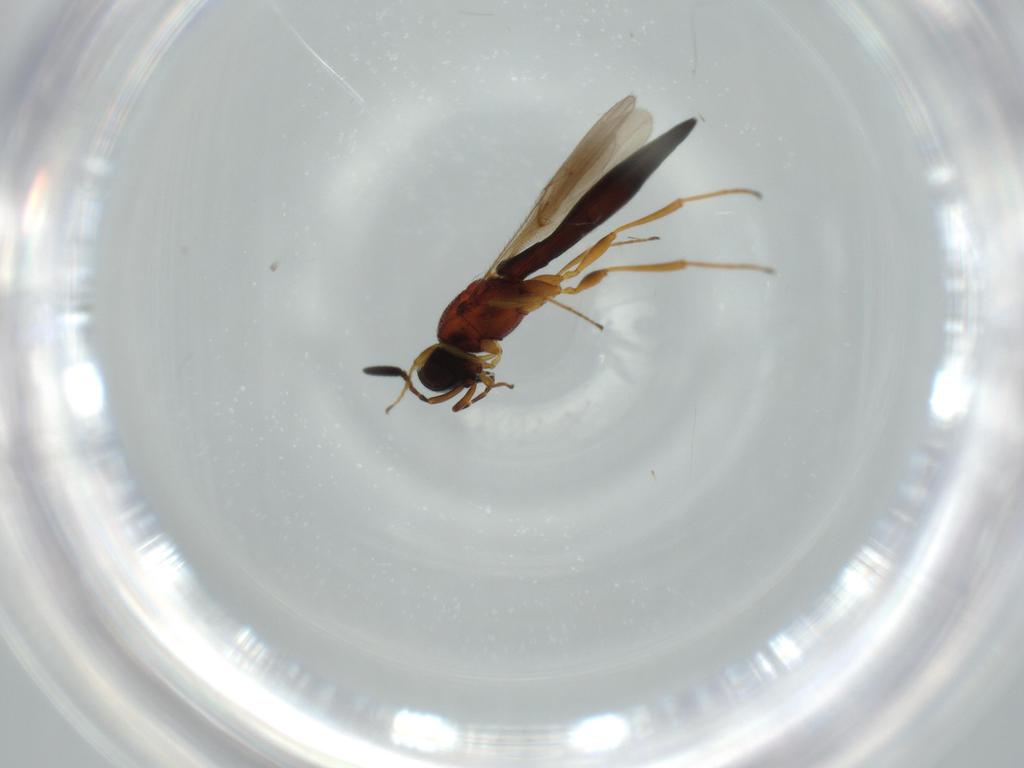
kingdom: Animalia
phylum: Arthropoda
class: Insecta
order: Hymenoptera
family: Scelionidae
